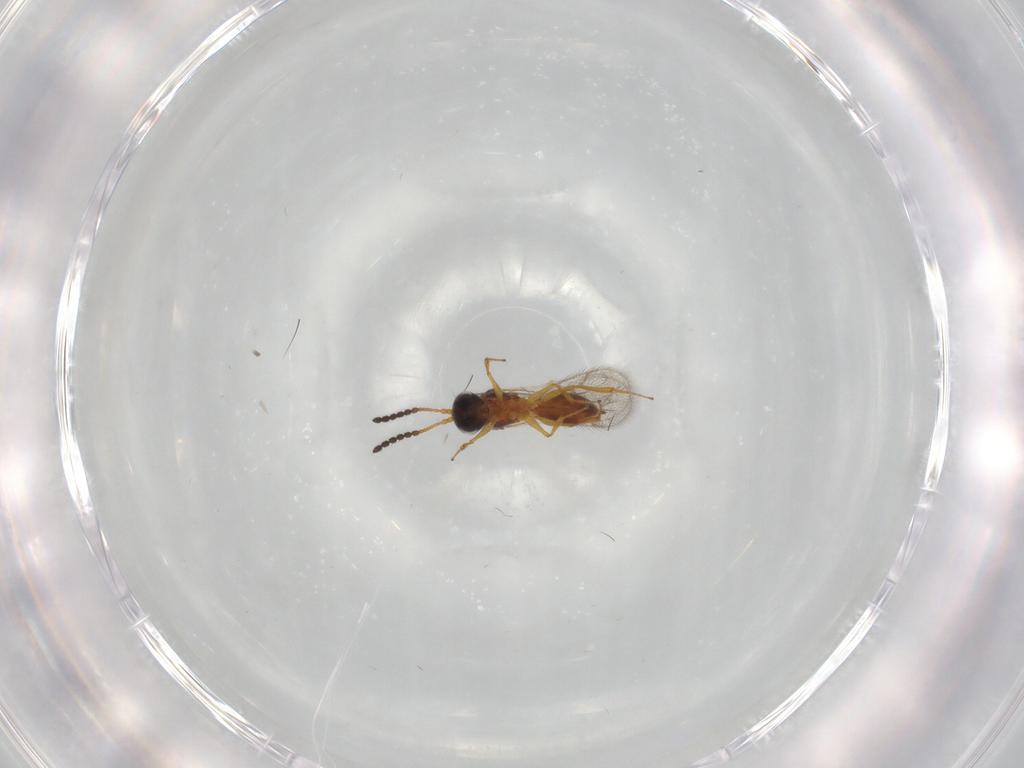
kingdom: Animalia
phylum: Arthropoda
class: Insecta
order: Hymenoptera
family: Figitidae
